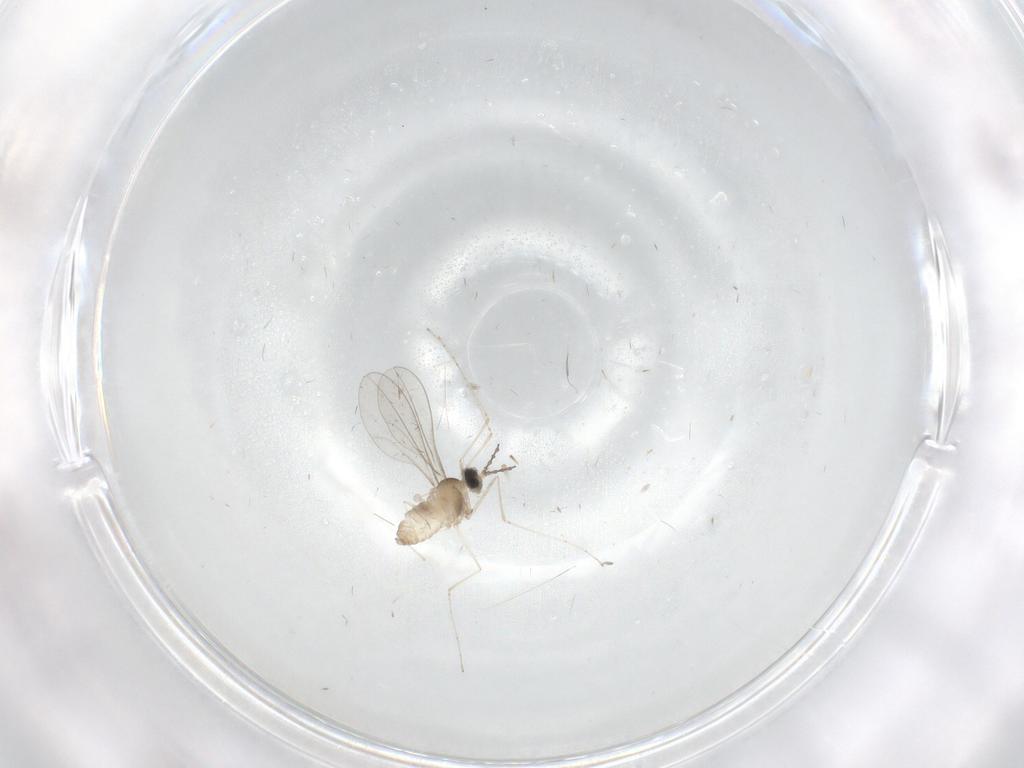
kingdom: Animalia
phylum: Arthropoda
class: Insecta
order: Diptera
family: Cecidomyiidae
